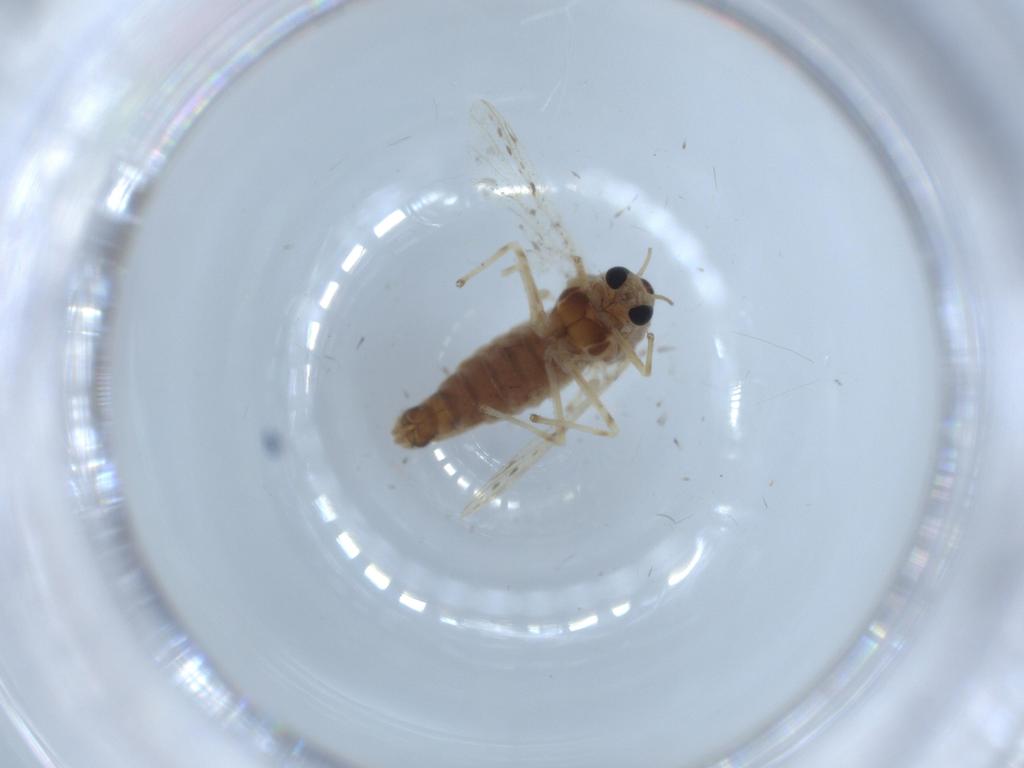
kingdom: Animalia
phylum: Arthropoda
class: Insecta
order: Diptera
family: Chironomidae
